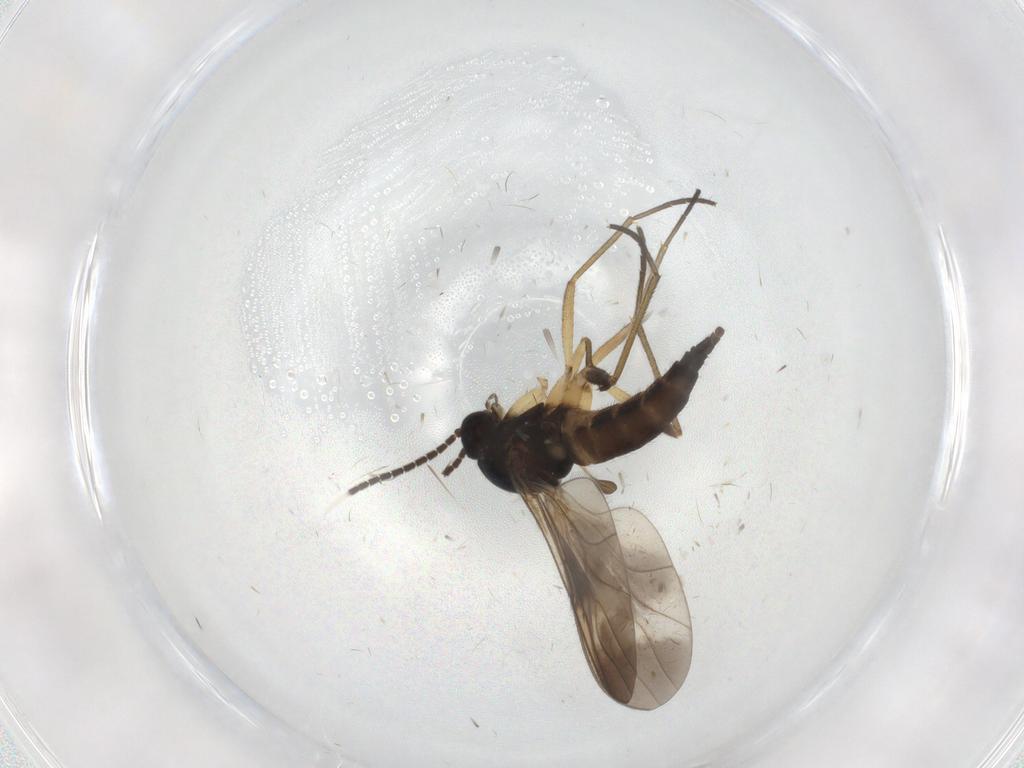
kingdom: Animalia
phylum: Arthropoda
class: Insecta
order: Diptera
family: Sciaridae
